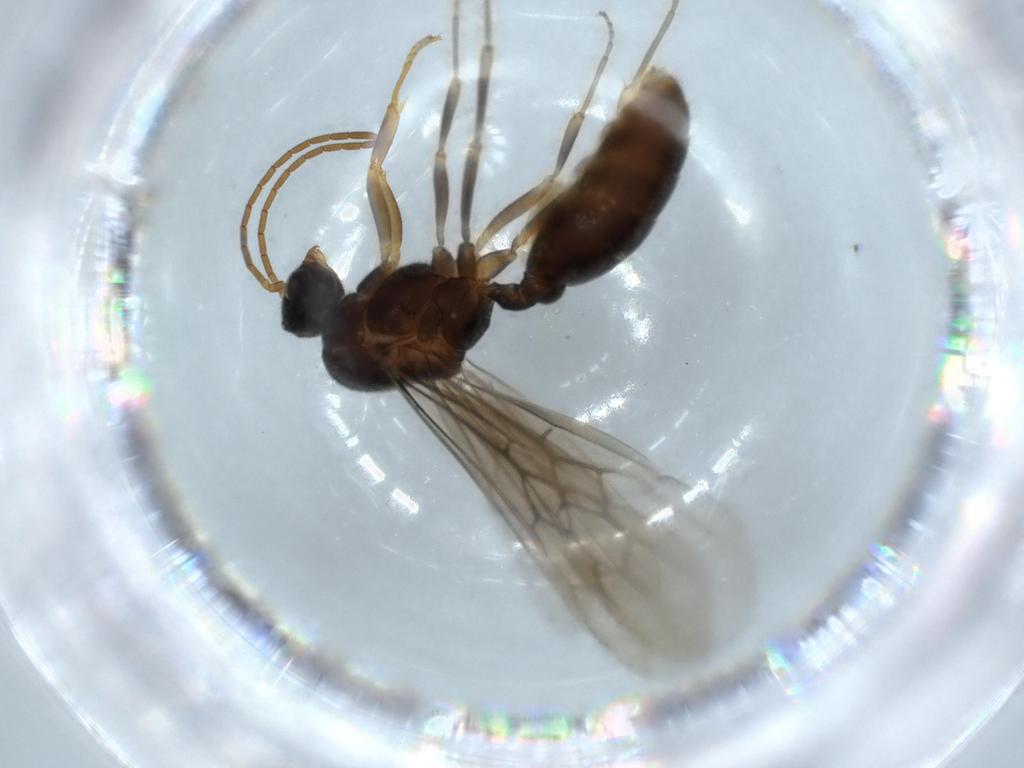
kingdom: Animalia
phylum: Arthropoda
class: Insecta
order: Hymenoptera
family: Formicidae
